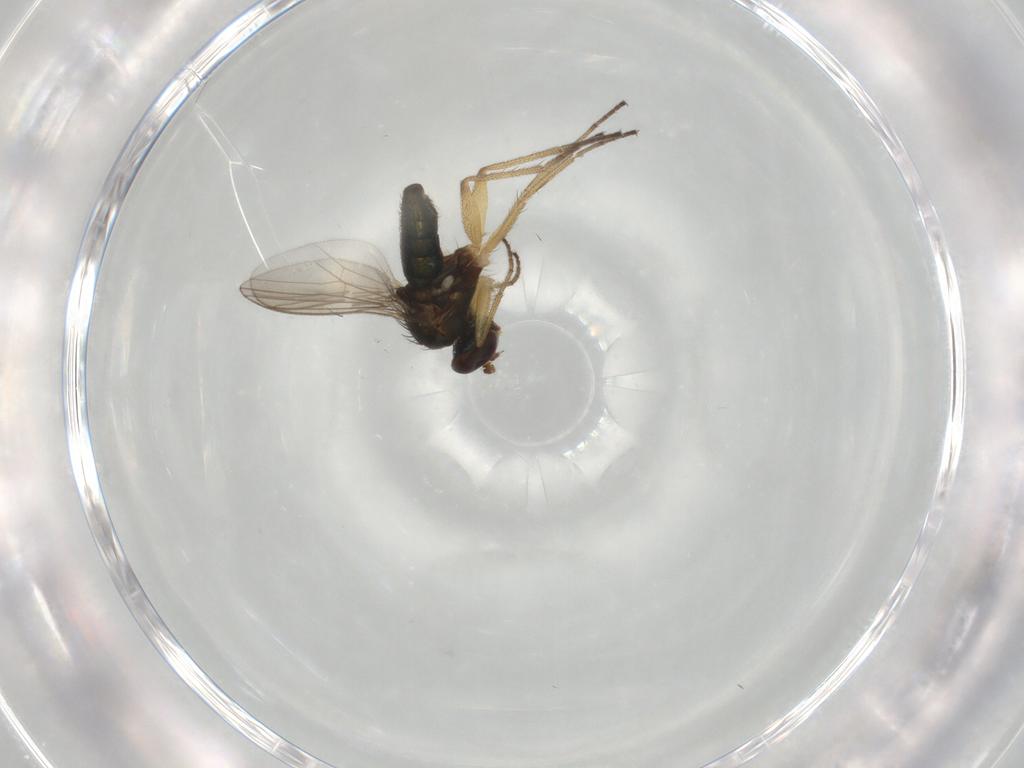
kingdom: Animalia
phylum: Arthropoda
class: Insecta
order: Diptera
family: Dolichopodidae
